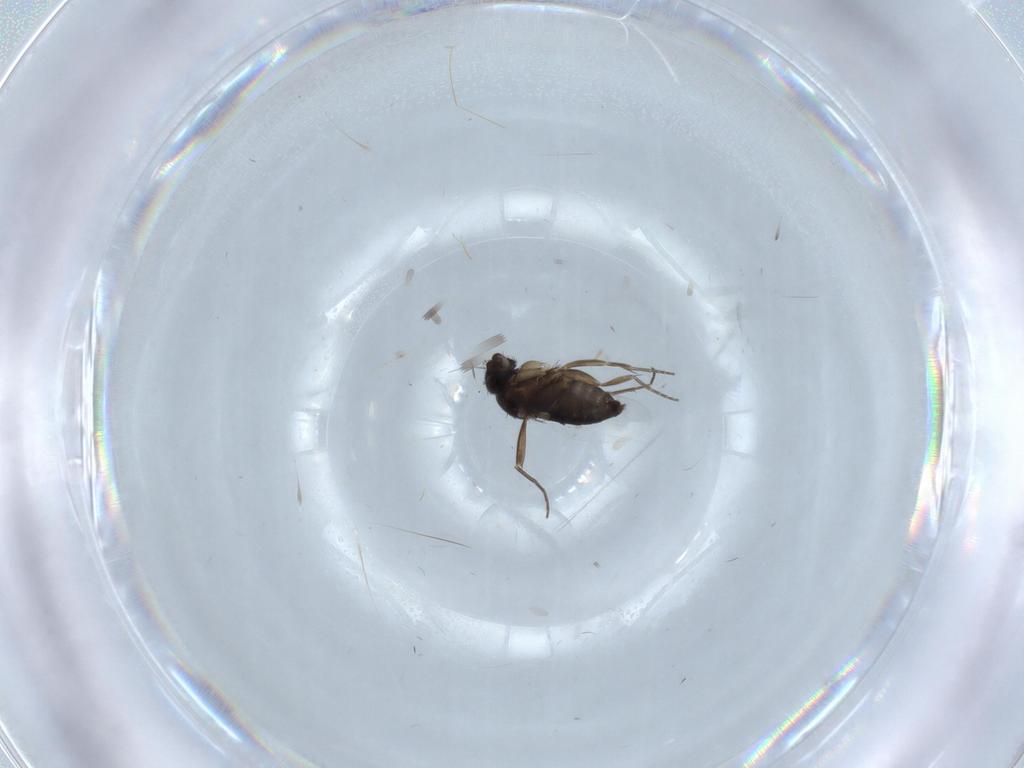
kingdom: Animalia
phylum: Arthropoda
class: Insecta
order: Diptera
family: Phoridae
